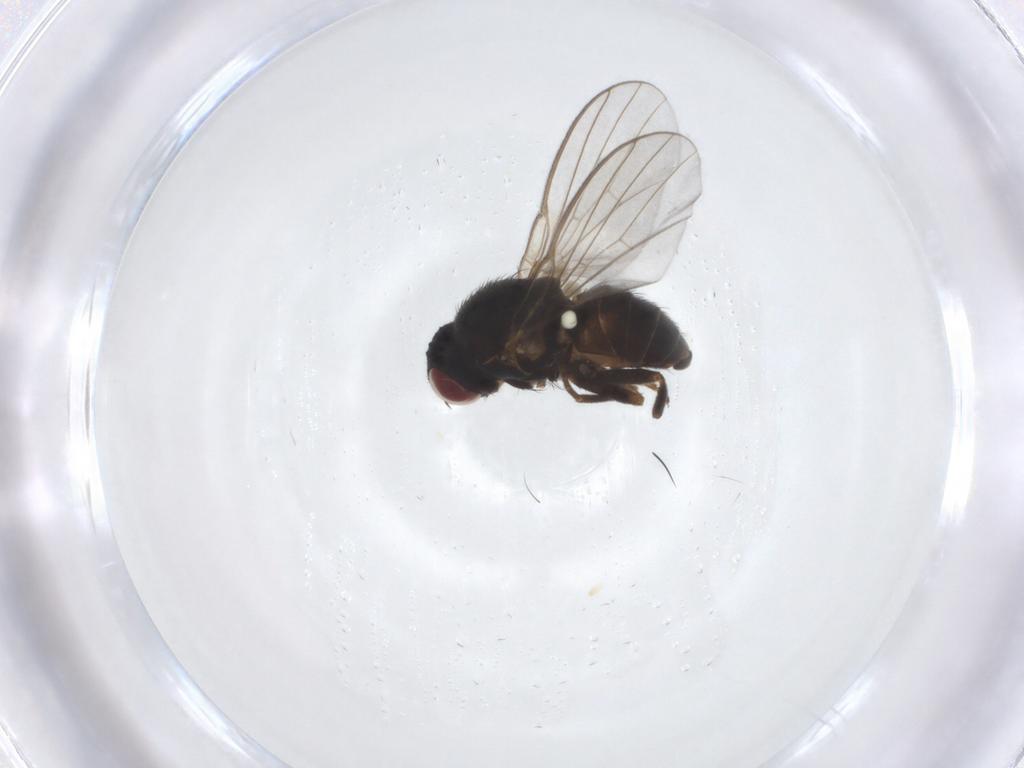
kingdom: Animalia
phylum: Arthropoda
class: Insecta
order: Diptera
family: Agromyzidae
